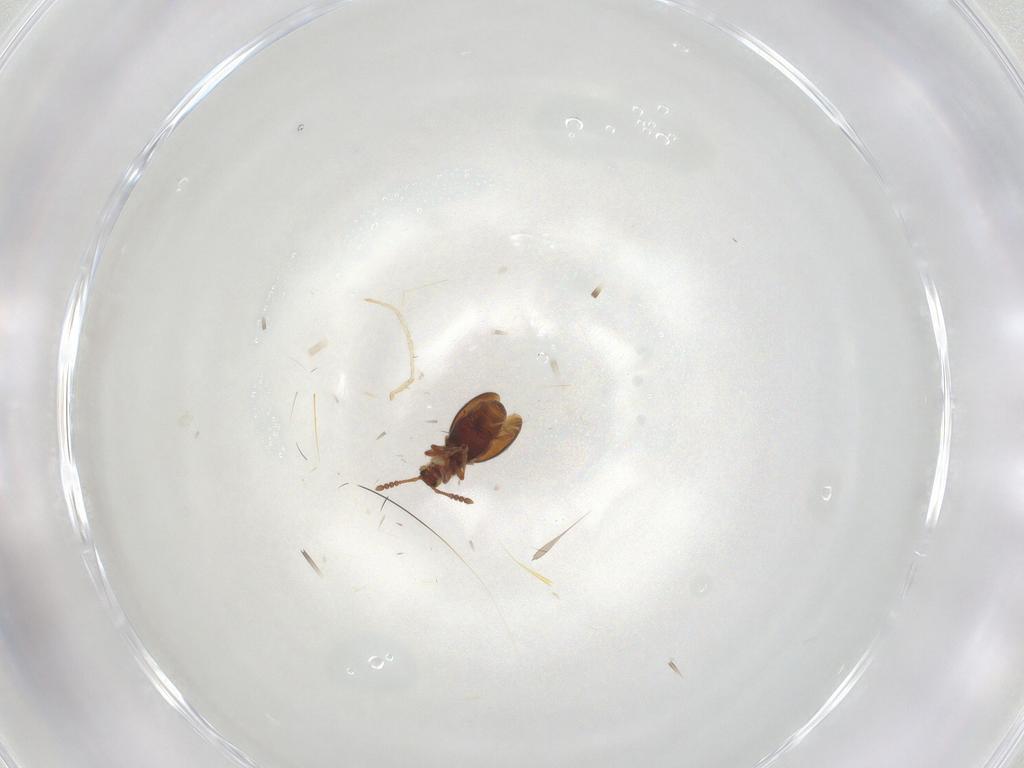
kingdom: Animalia
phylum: Arthropoda
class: Insecta
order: Coleoptera
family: Staphylinidae
